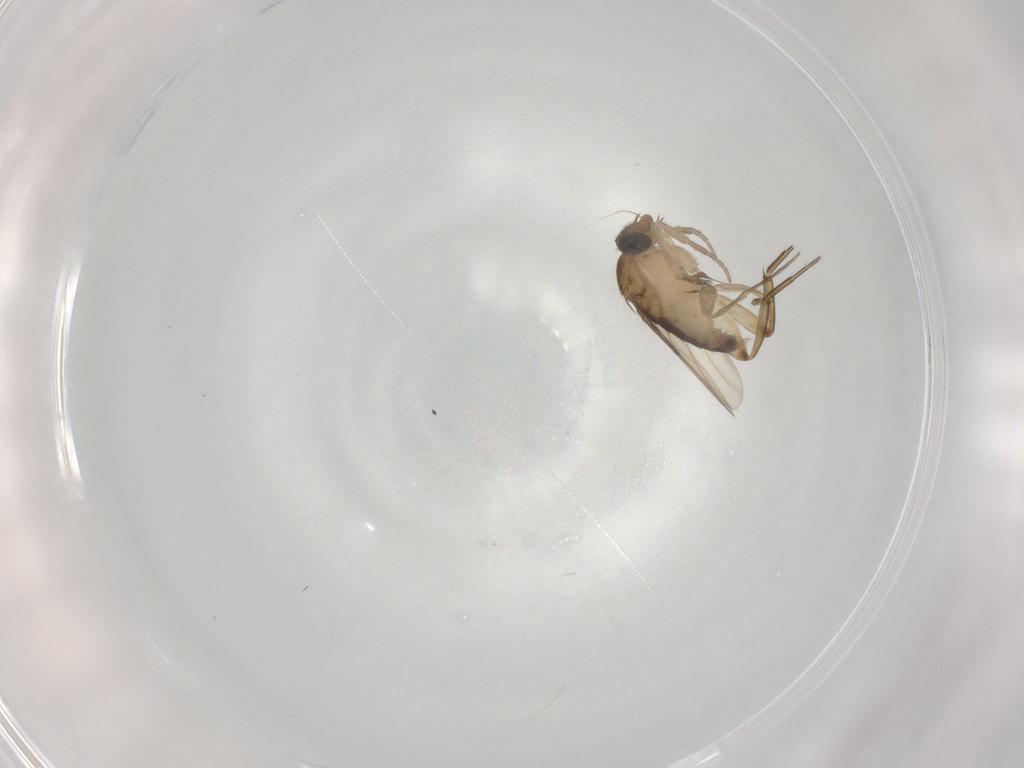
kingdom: Animalia
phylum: Arthropoda
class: Insecta
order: Diptera
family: Phoridae
